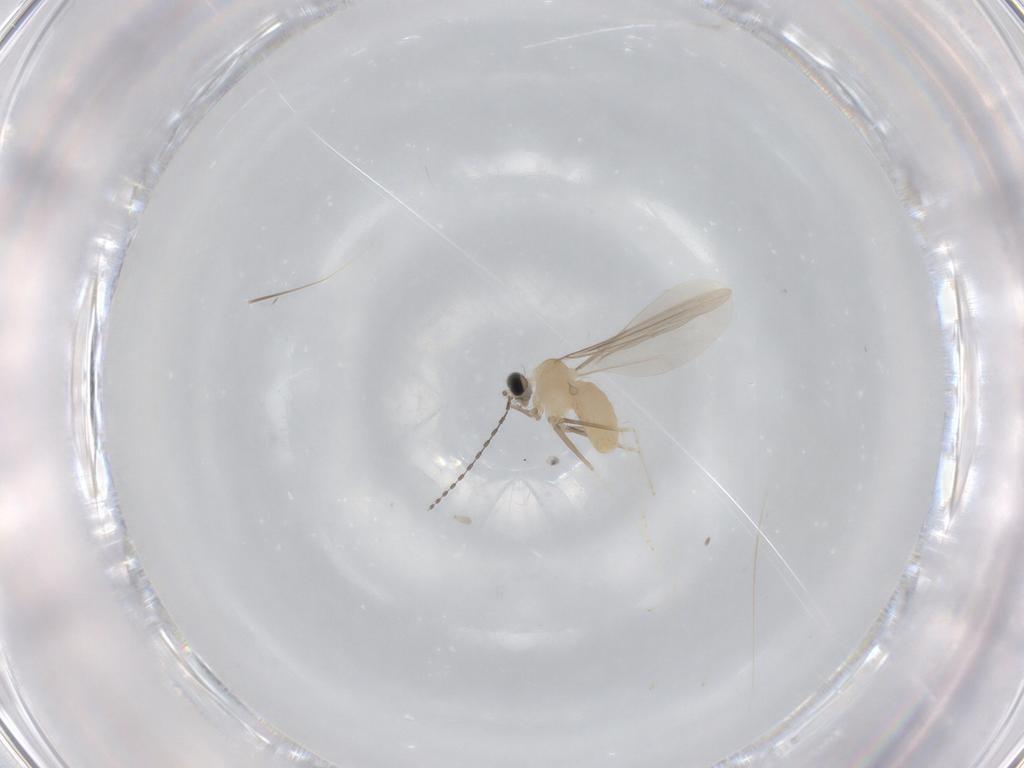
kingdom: Animalia
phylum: Arthropoda
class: Insecta
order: Diptera
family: Cecidomyiidae
